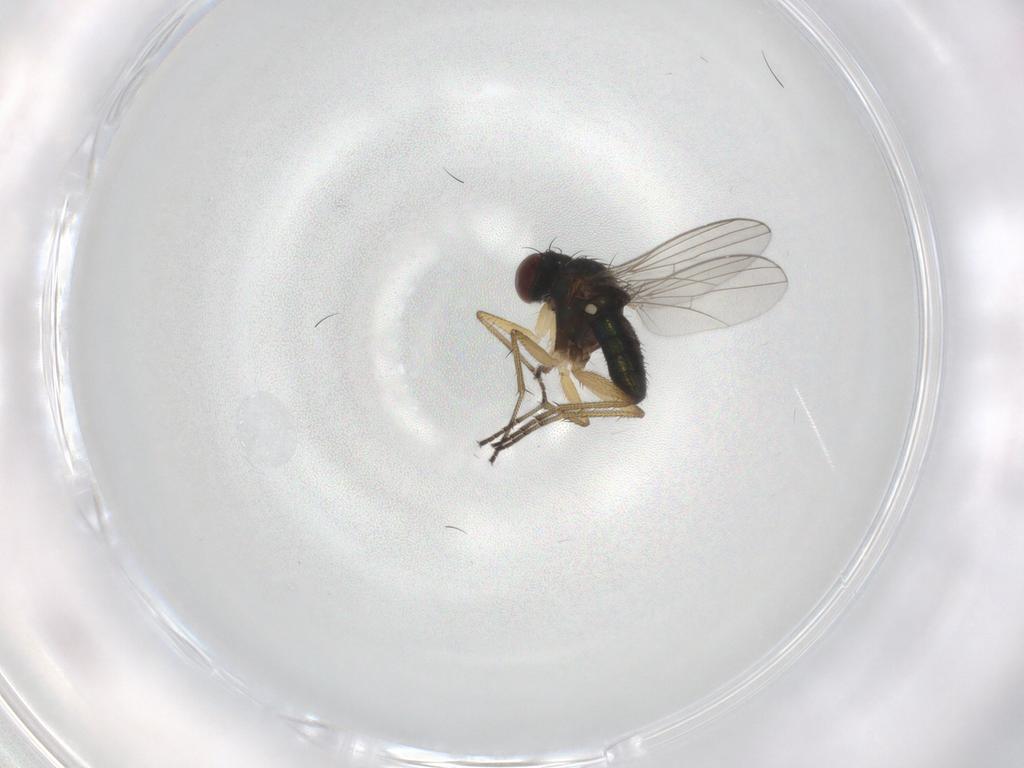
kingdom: Animalia
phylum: Arthropoda
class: Insecta
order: Diptera
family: Dolichopodidae
